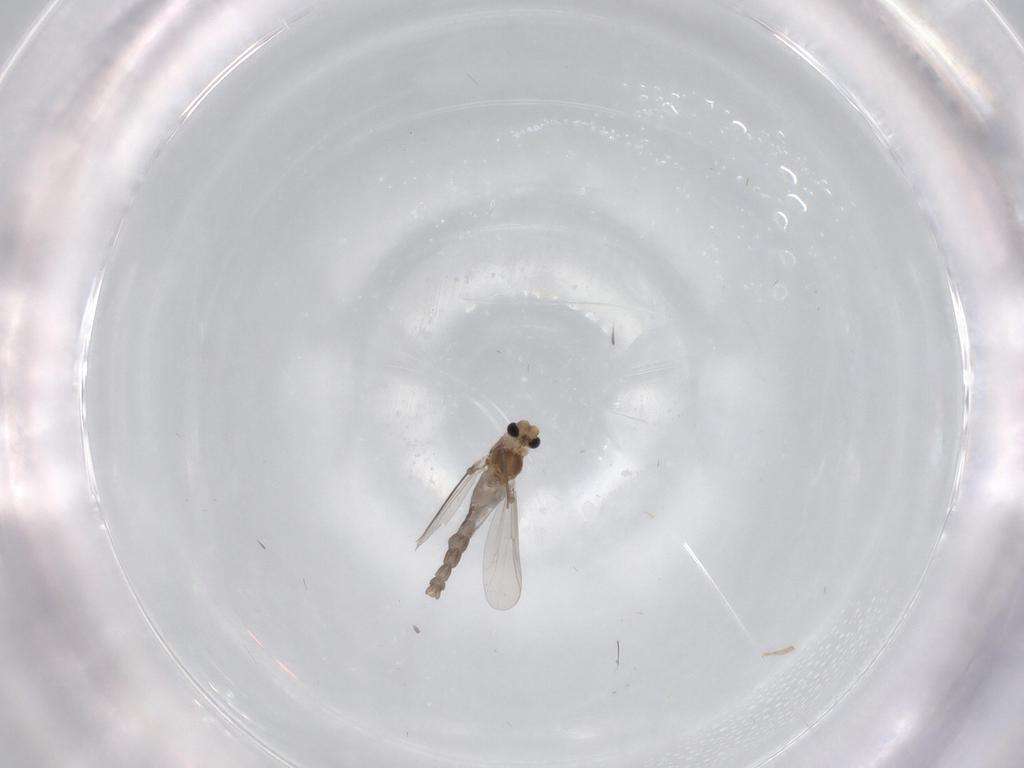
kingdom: Animalia
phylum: Arthropoda
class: Insecta
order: Diptera
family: Chironomidae
